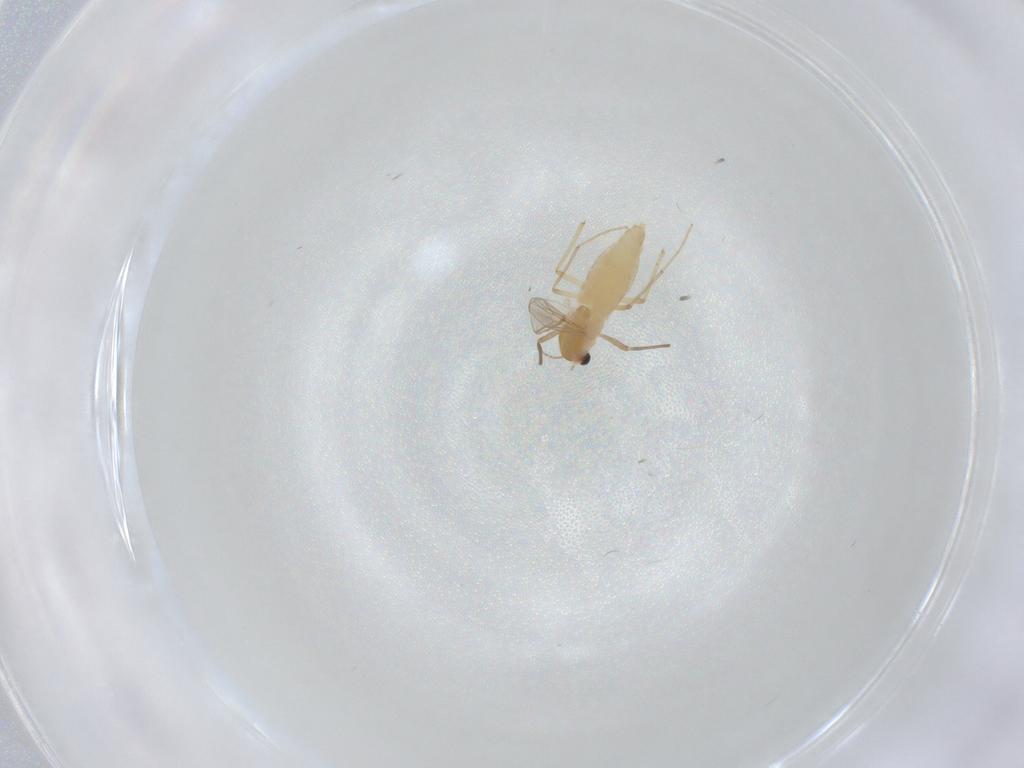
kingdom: Animalia
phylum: Arthropoda
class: Insecta
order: Diptera
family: Chironomidae
